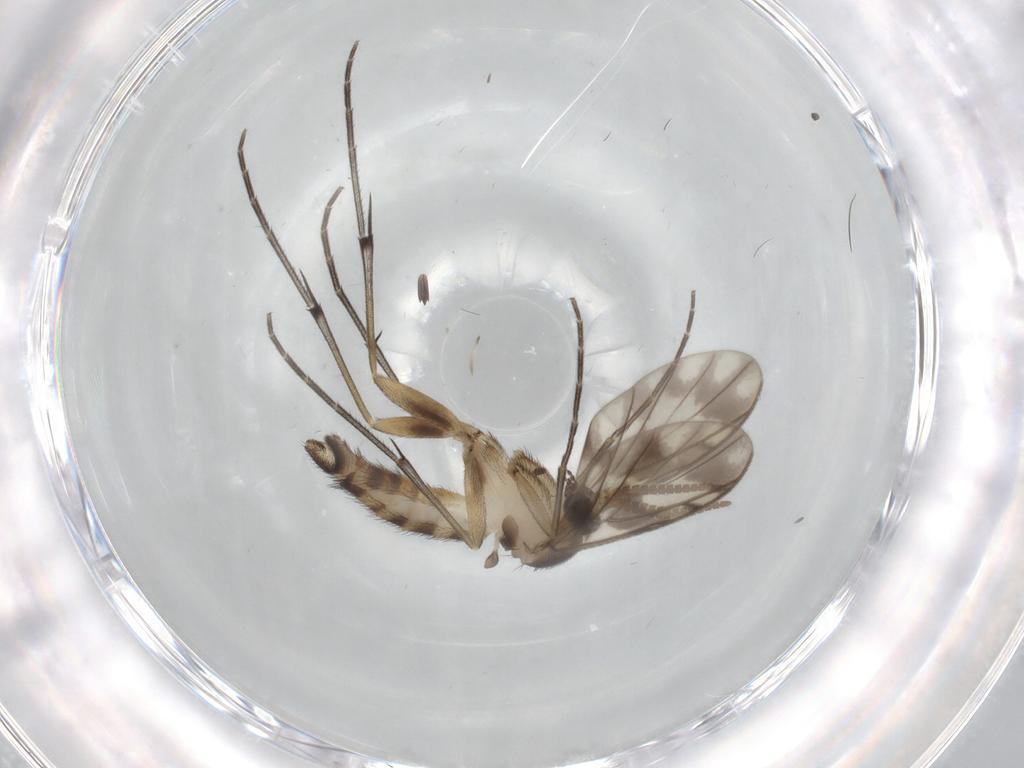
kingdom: Animalia
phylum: Arthropoda
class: Insecta
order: Diptera
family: Keroplatidae
